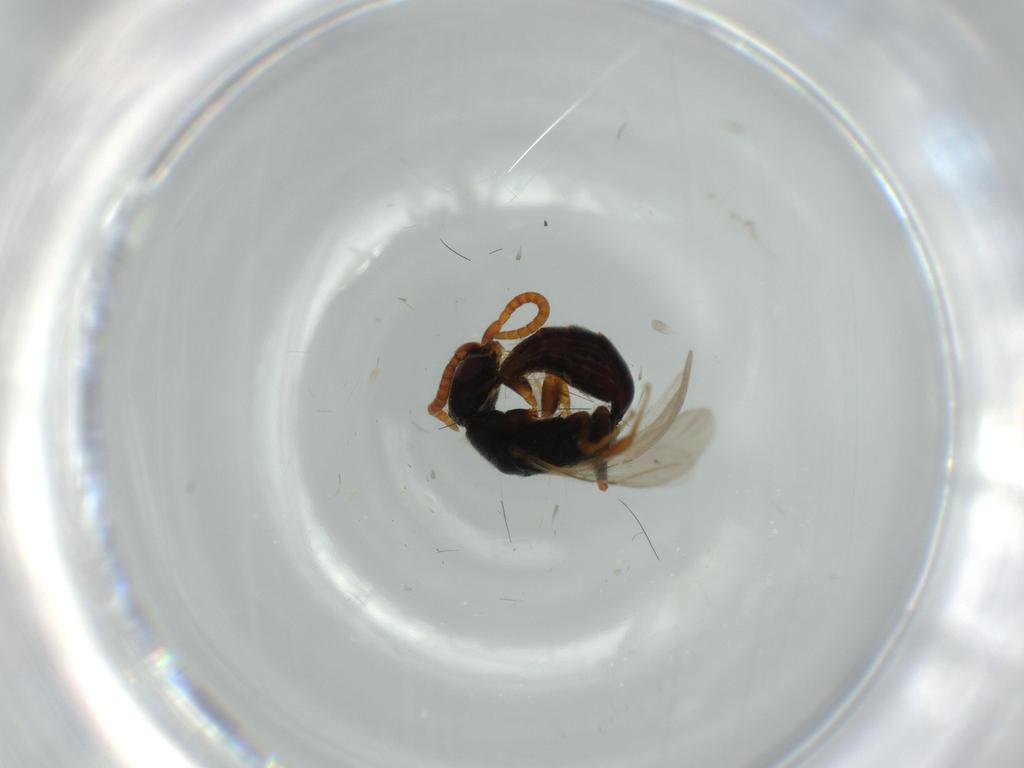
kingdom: Animalia
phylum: Arthropoda
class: Insecta
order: Hymenoptera
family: Bethylidae
